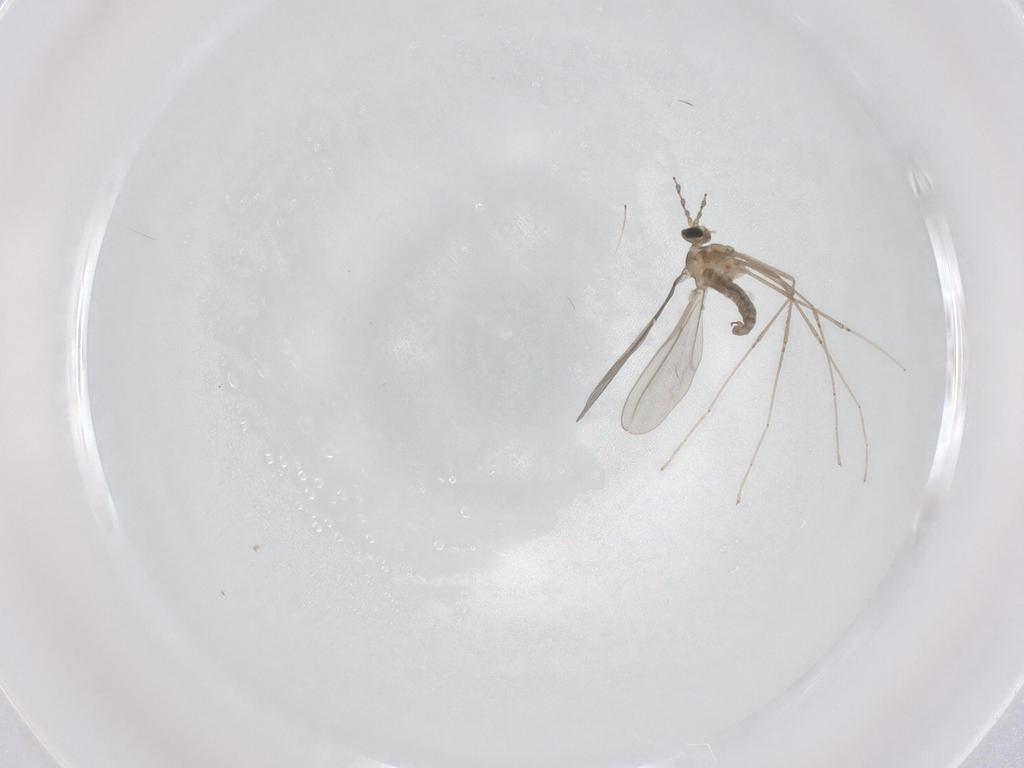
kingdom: Animalia
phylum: Arthropoda
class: Insecta
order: Diptera
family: Cecidomyiidae
